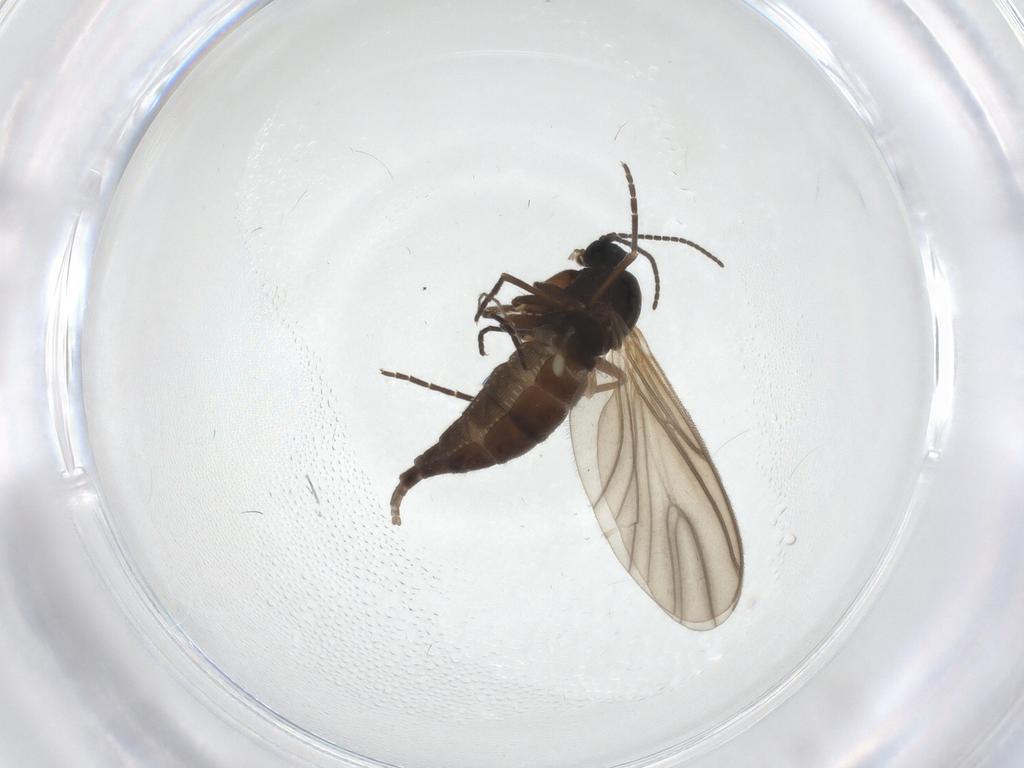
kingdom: Animalia
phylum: Arthropoda
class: Insecta
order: Diptera
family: Sciaridae
